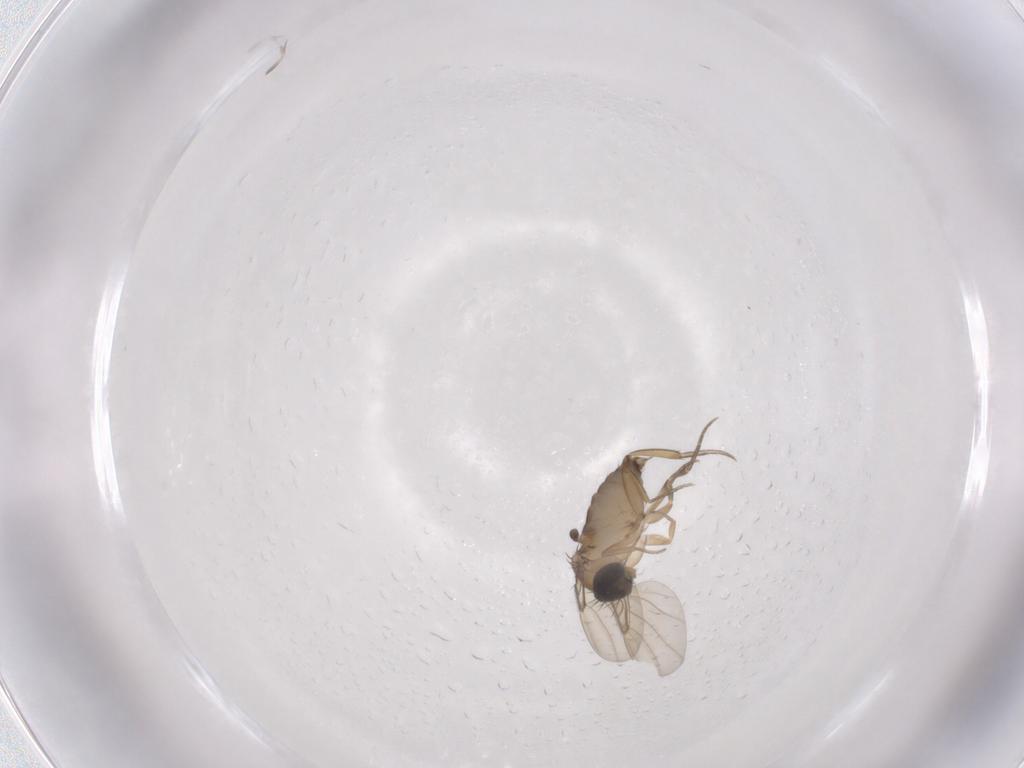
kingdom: Animalia
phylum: Arthropoda
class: Insecta
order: Diptera
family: Phoridae
